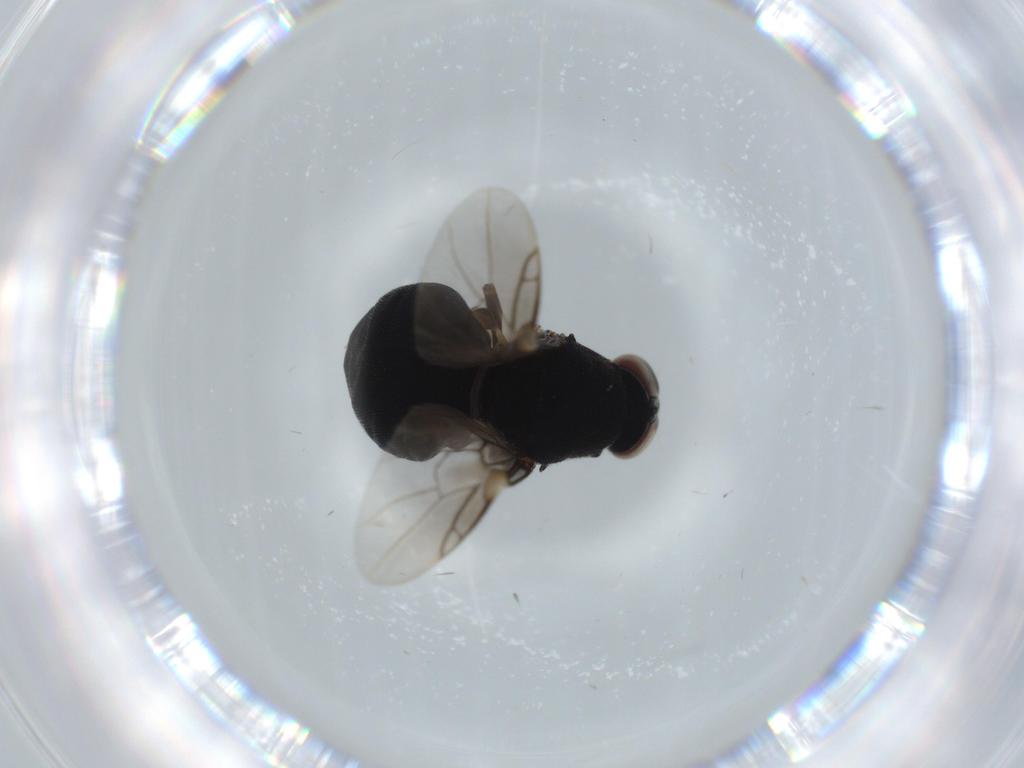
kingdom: Animalia
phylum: Arthropoda
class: Insecta
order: Diptera
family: Stratiomyidae
